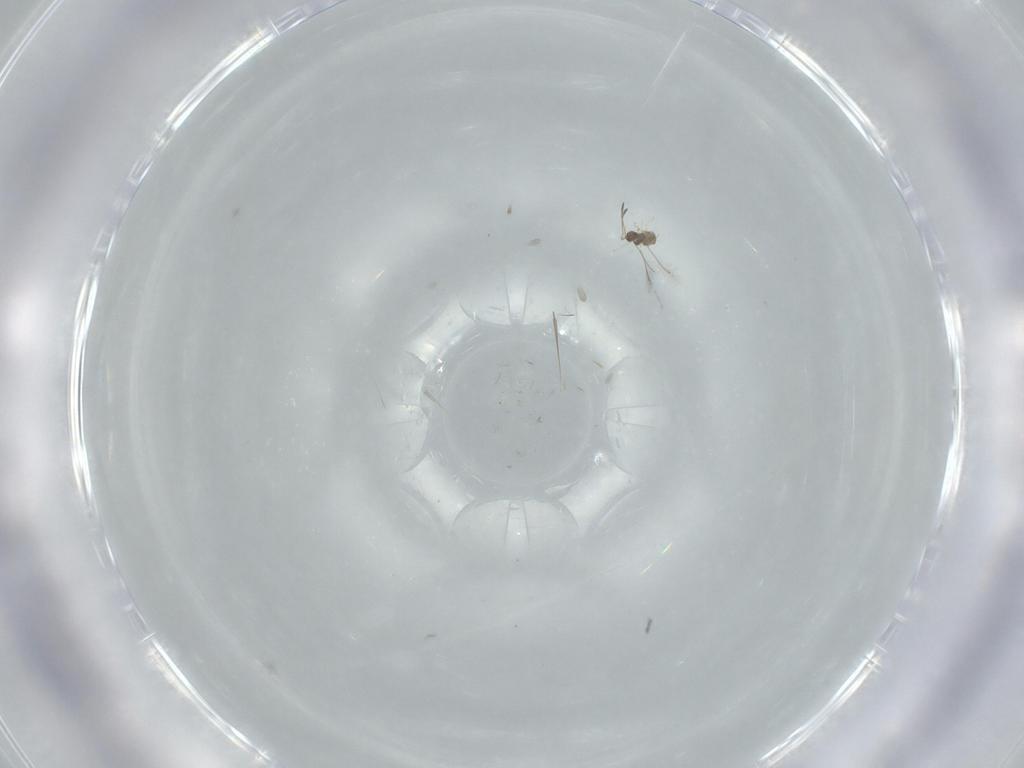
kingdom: Animalia
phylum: Arthropoda
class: Insecta
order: Hymenoptera
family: Mymaridae
